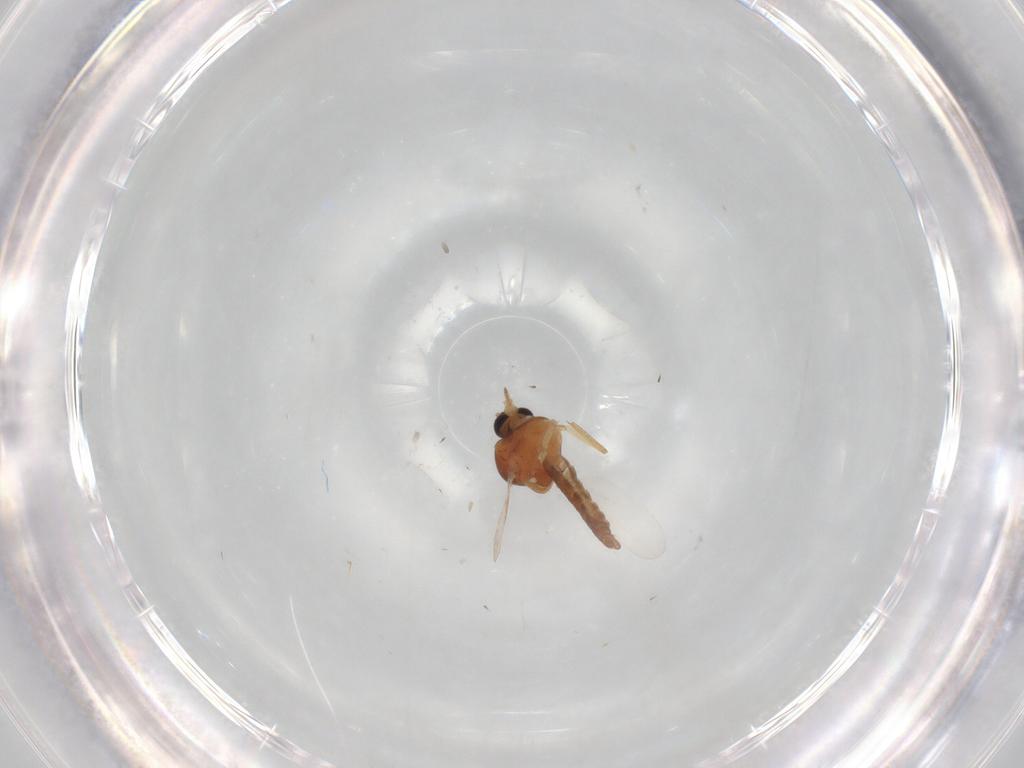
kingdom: Animalia
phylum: Arthropoda
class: Insecta
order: Diptera
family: Ceratopogonidae
